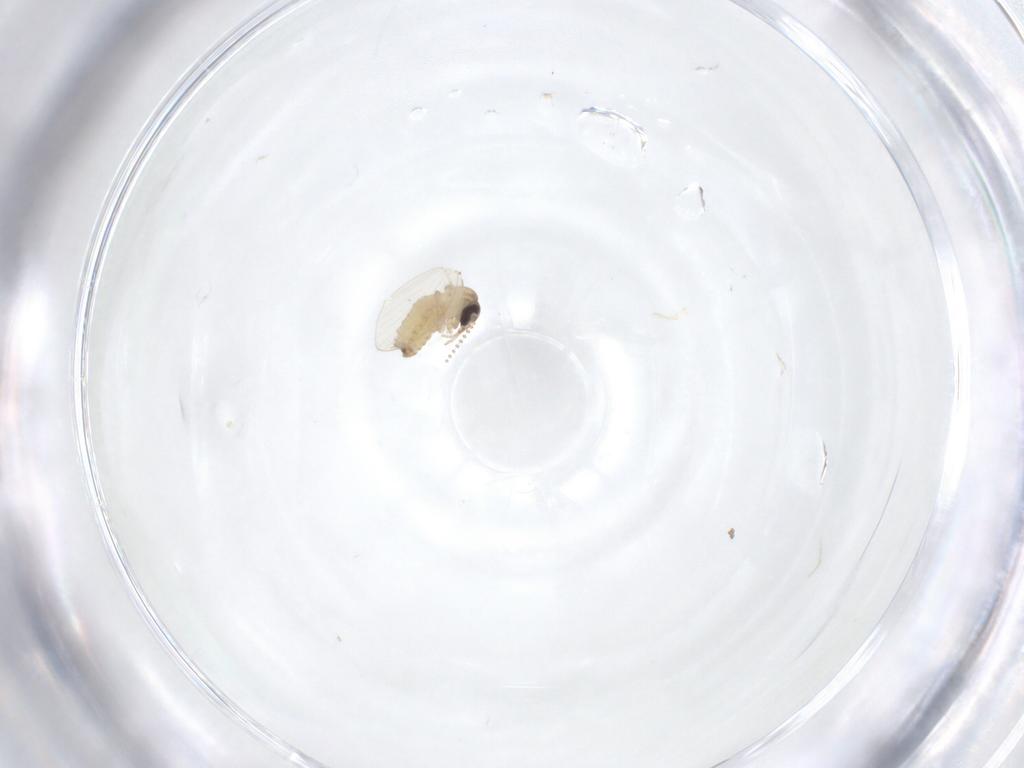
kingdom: Animalia
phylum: Arthropoda
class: Insecta
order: Diptera
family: Psychodidae
